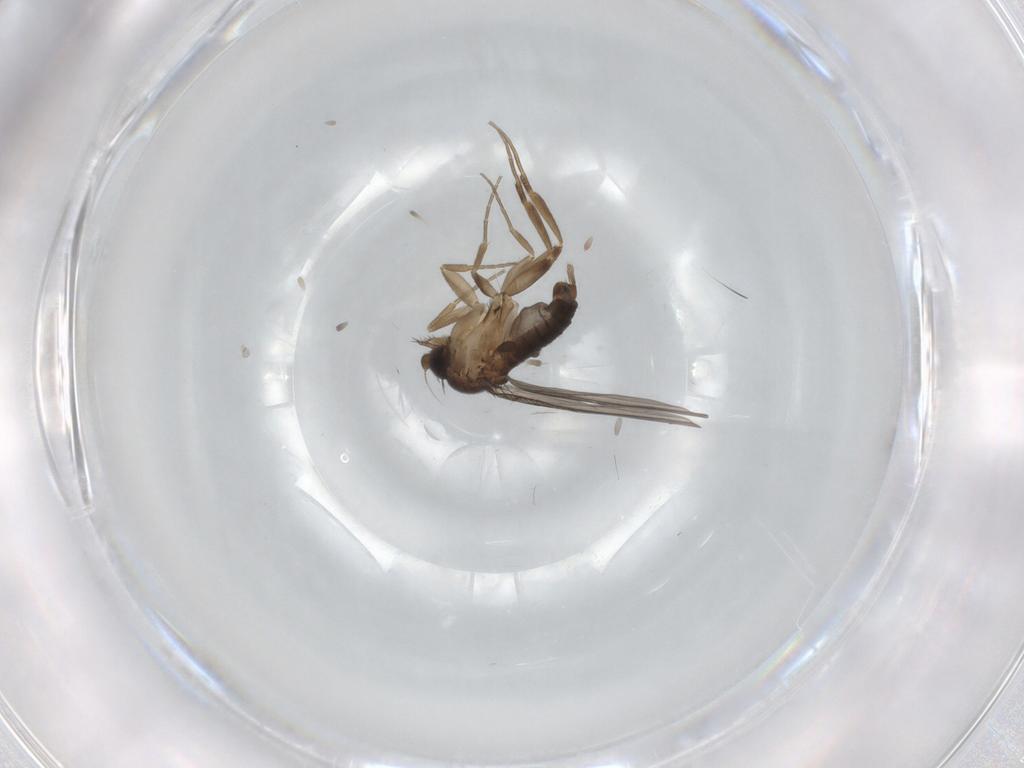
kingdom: Animalia
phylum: Arthropoda
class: Insecta
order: Diptera
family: Phoridae
